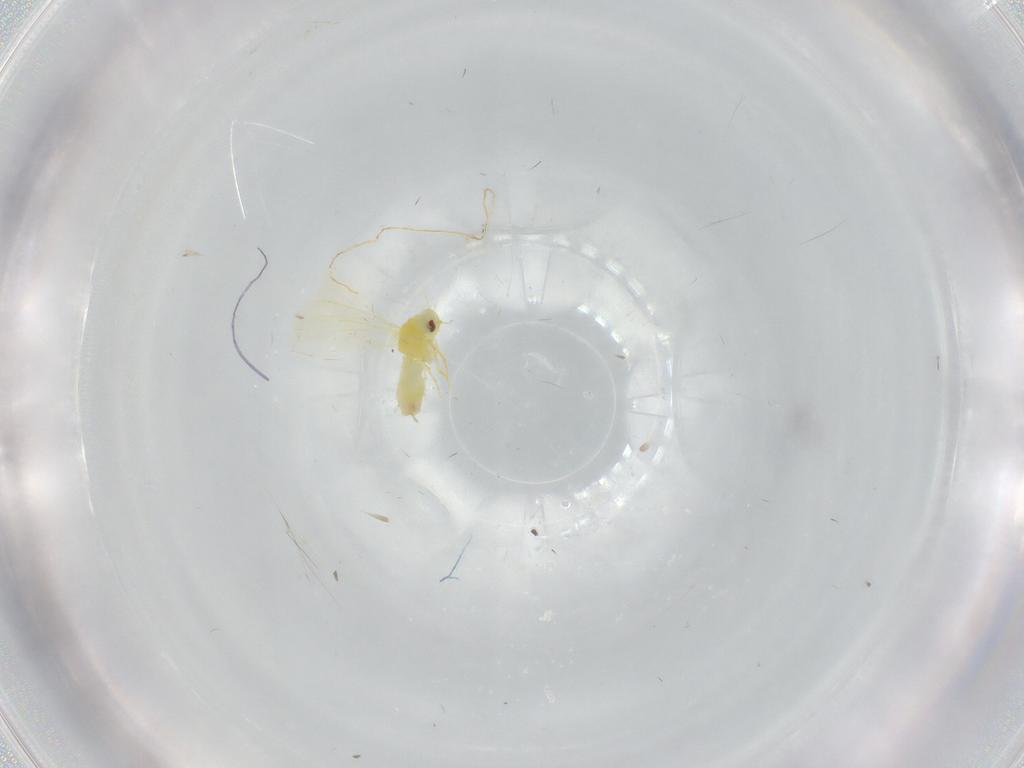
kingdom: Animalia
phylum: Arthropoda
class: Insecta
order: Hemiptera
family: Aleyrodidae
